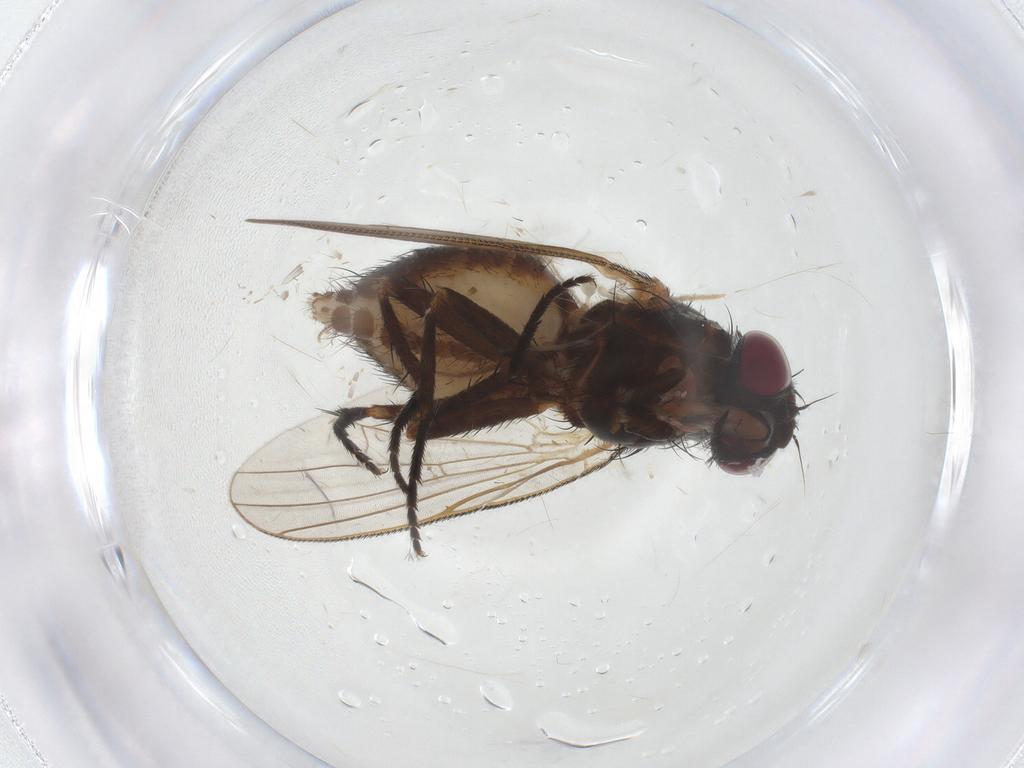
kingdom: Animalia
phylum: Arthropoda
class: Insecta
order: Diptera
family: Fannia
